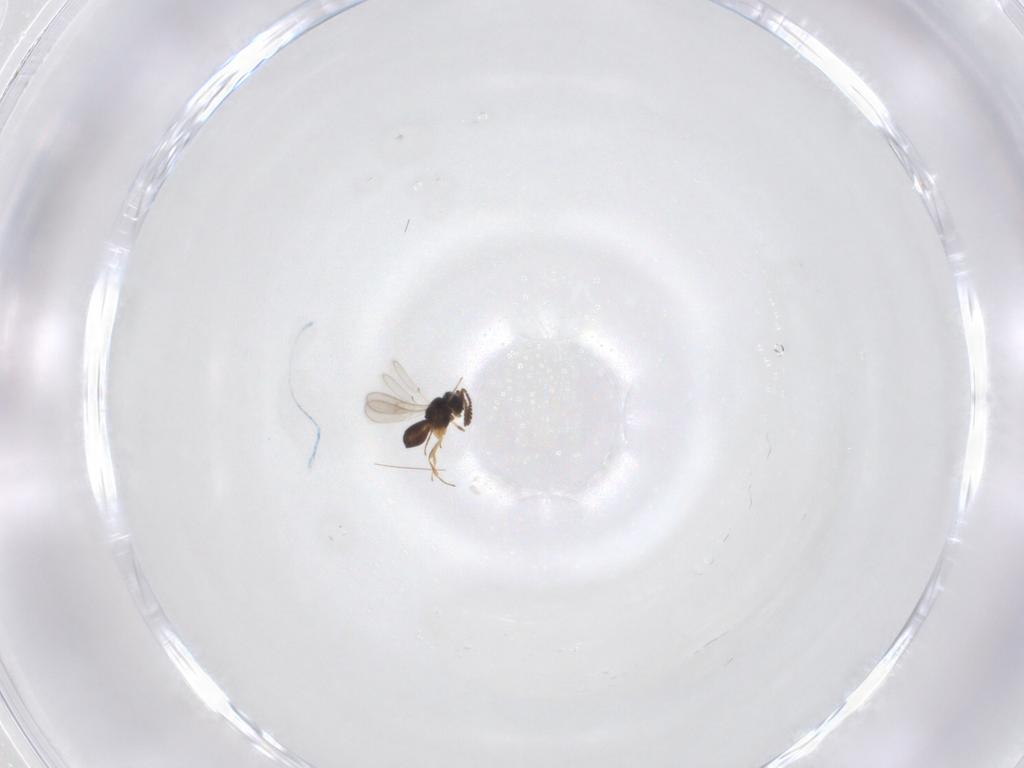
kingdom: Animalia
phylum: Arthropoda
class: Insecta
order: Hymenoptera
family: Scelionidae
